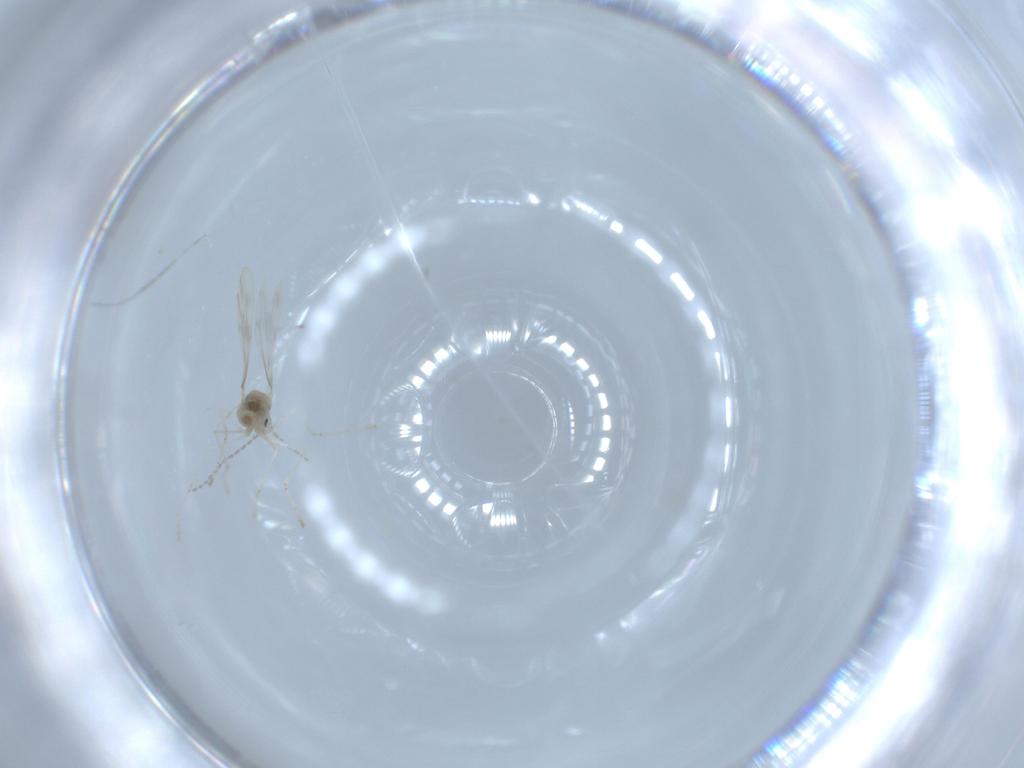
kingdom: Animalia
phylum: Arthropoda
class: Insecta
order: Diptera
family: Cecidomyiidae
